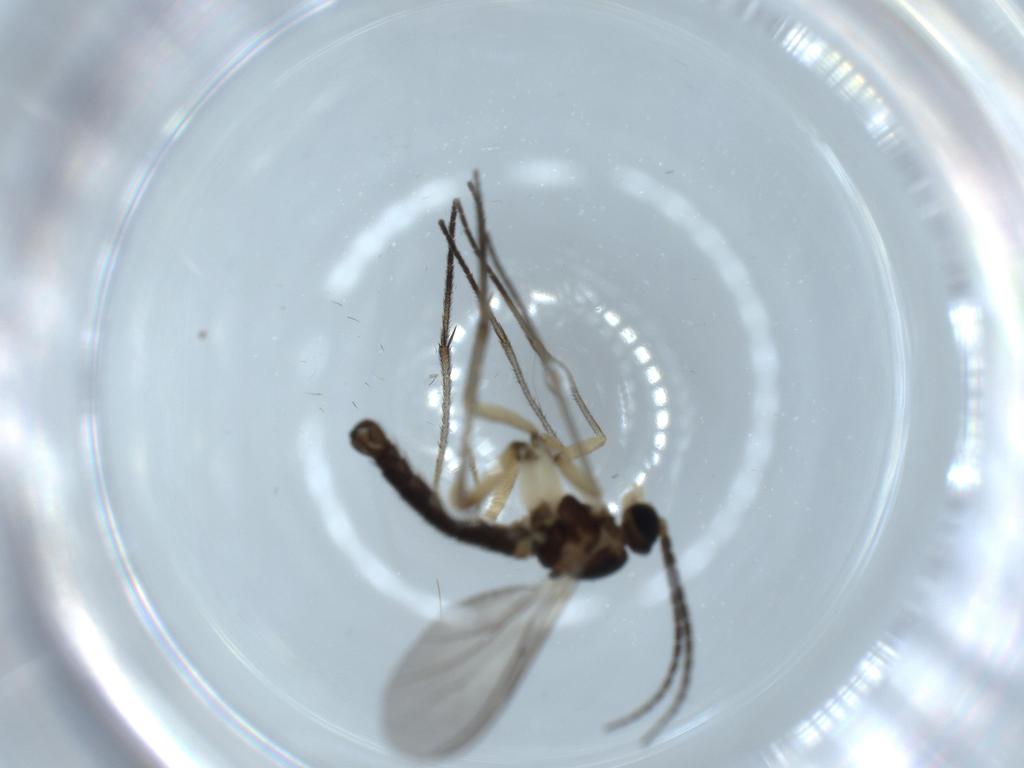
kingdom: Animalia
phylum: Arthropoda
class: Insecta
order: Diptera
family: Sciaridae
